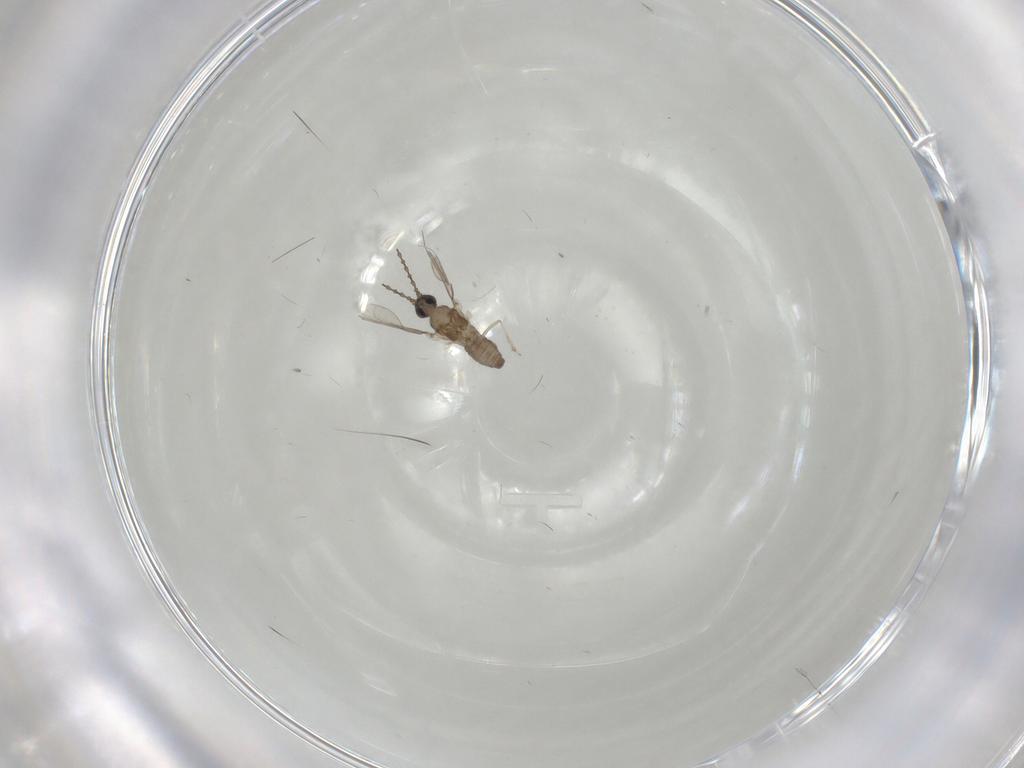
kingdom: Animalia
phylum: Arthropoda
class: Insecta
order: Diptera
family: Cecidomyiidae
